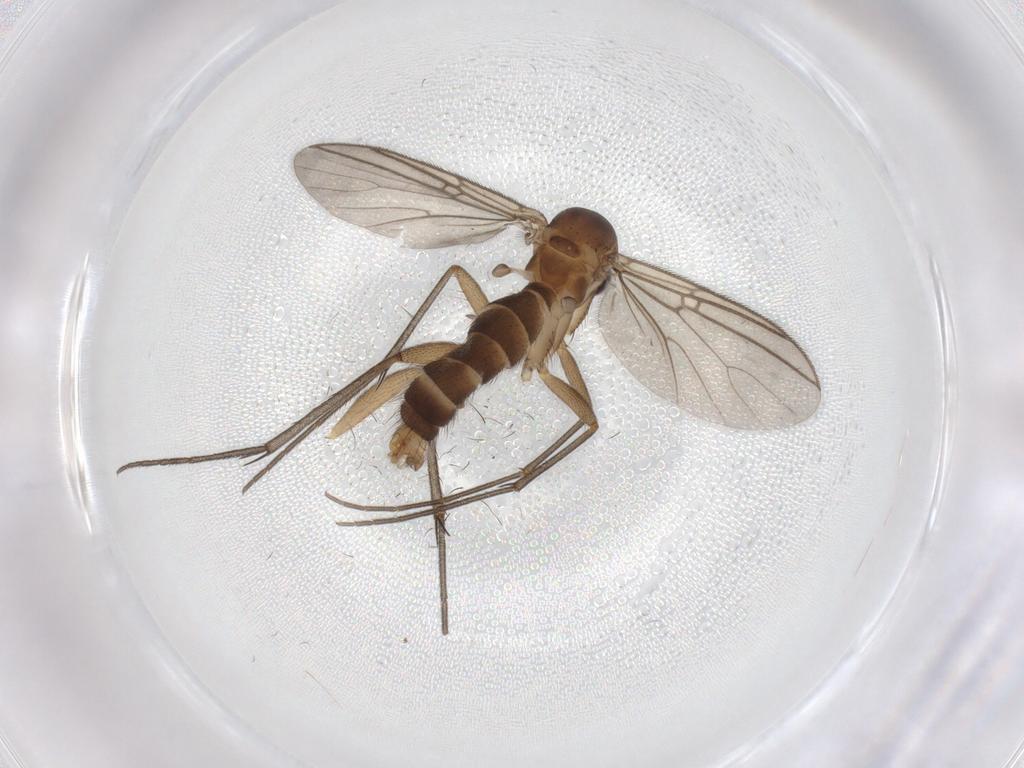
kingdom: Animalia
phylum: Arthropoda
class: Insecta
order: Diptera
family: Cecidomyiidae
